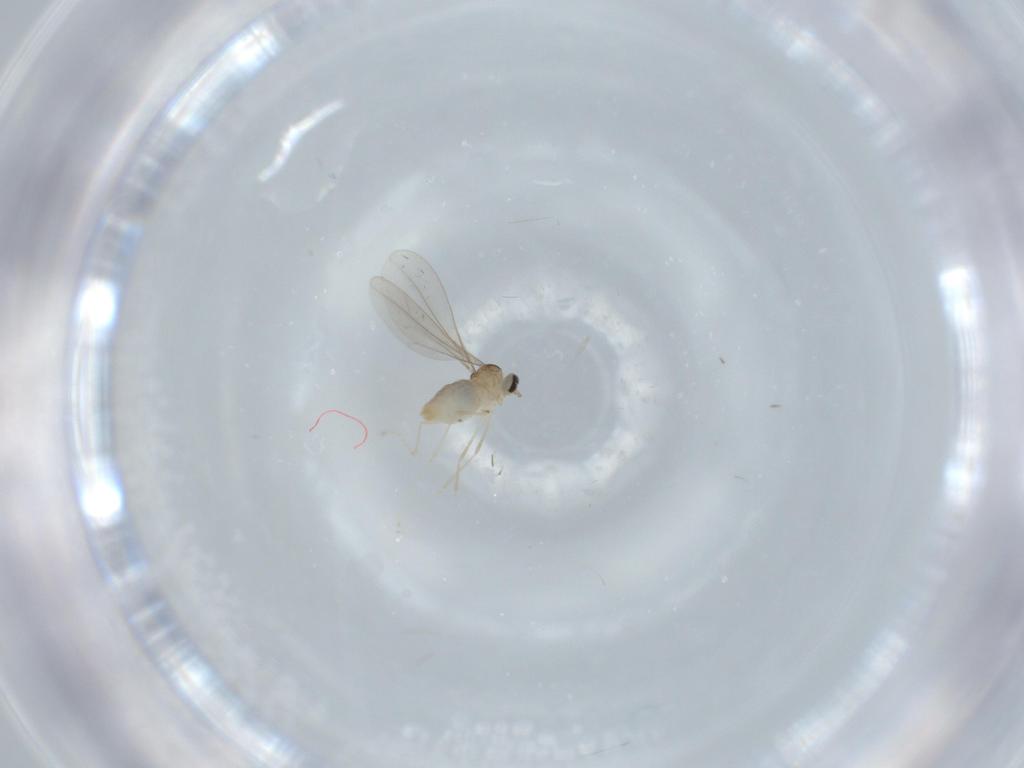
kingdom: Animalia
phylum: Arthropoda
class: Insecta
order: Diptera
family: Cecidomyiidae
